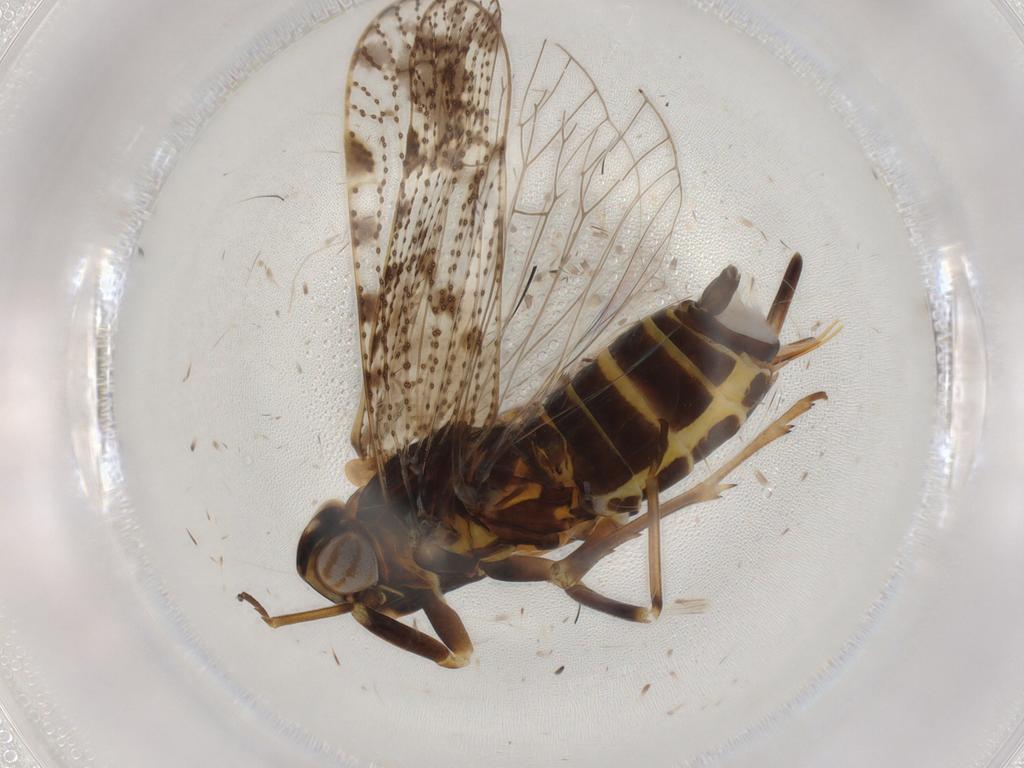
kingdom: Animalia
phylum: Arthropoda
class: Insecta
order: Hemiptera
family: Cixiidae
